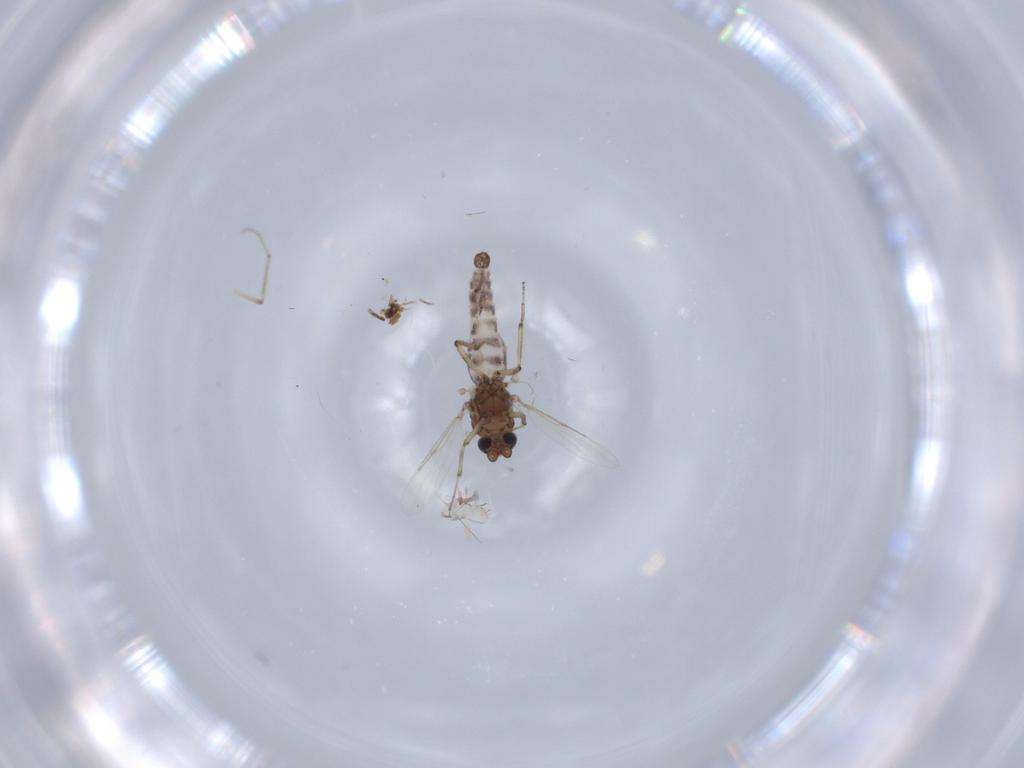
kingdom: Animalia
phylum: Arthropoda
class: Insecta
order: Diptera
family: Ceratopogonidae
